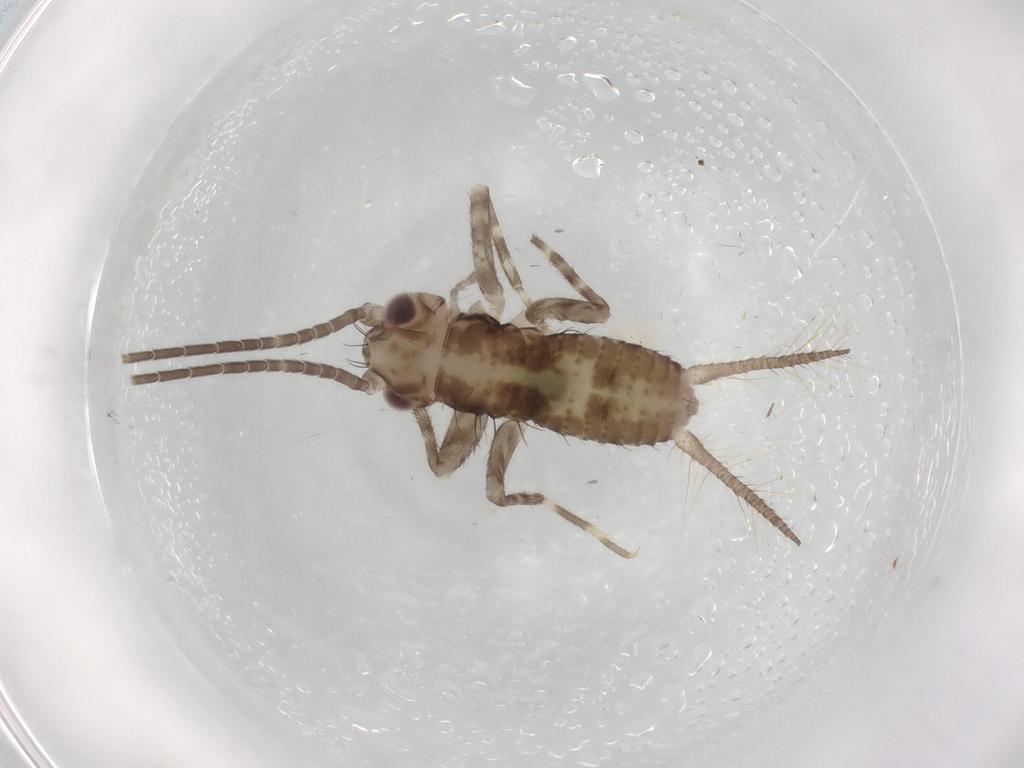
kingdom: Animalia
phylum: Arthropoda
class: Insecta
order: Orthoptera
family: Gryllidae
